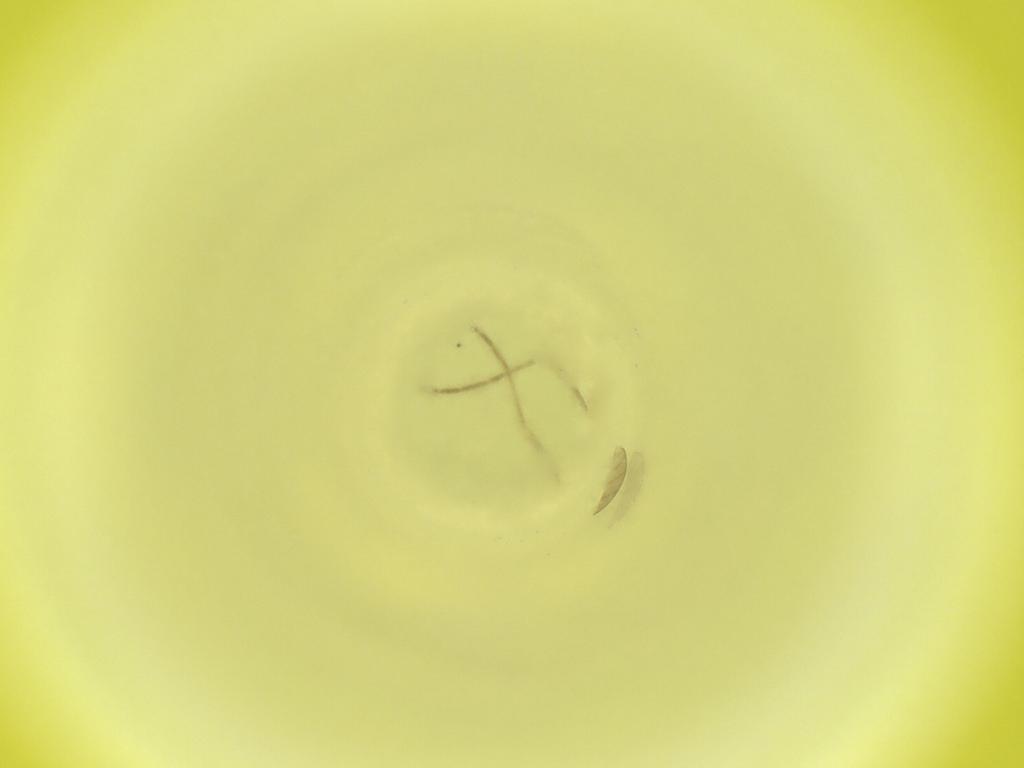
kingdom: Animalia
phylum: Arthropoda
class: Insecta
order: Diptera
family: Cecidomyiidae
